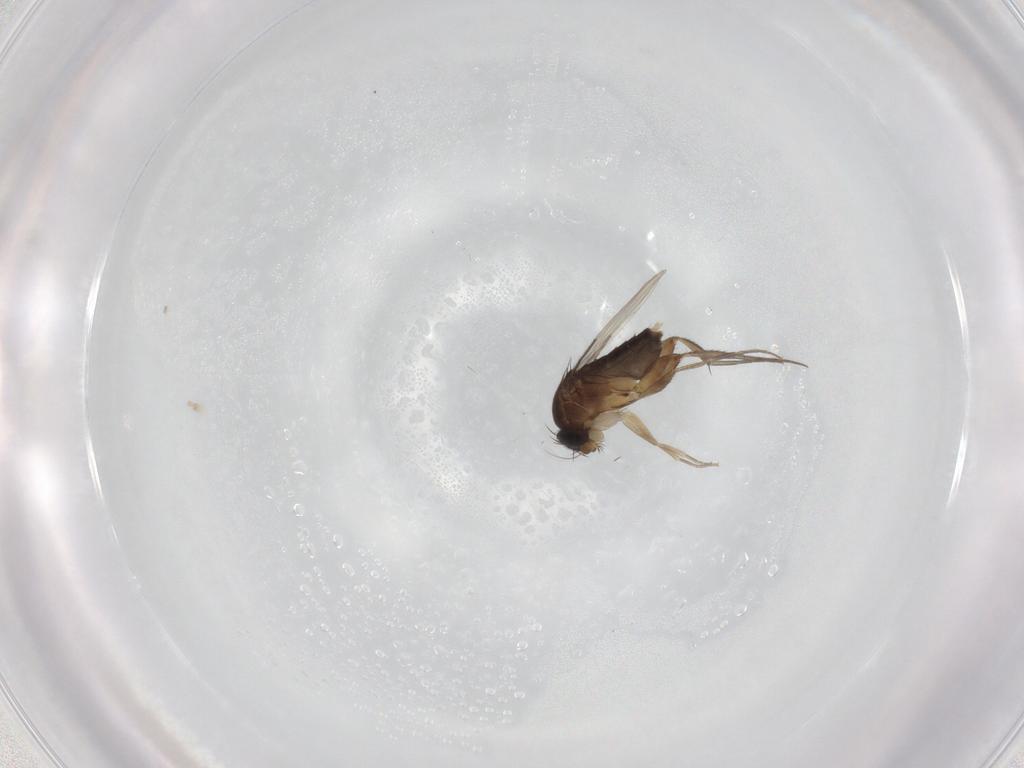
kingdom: Animalia
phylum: Arthropoda
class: Insecta
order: Diptera
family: Phoridae
